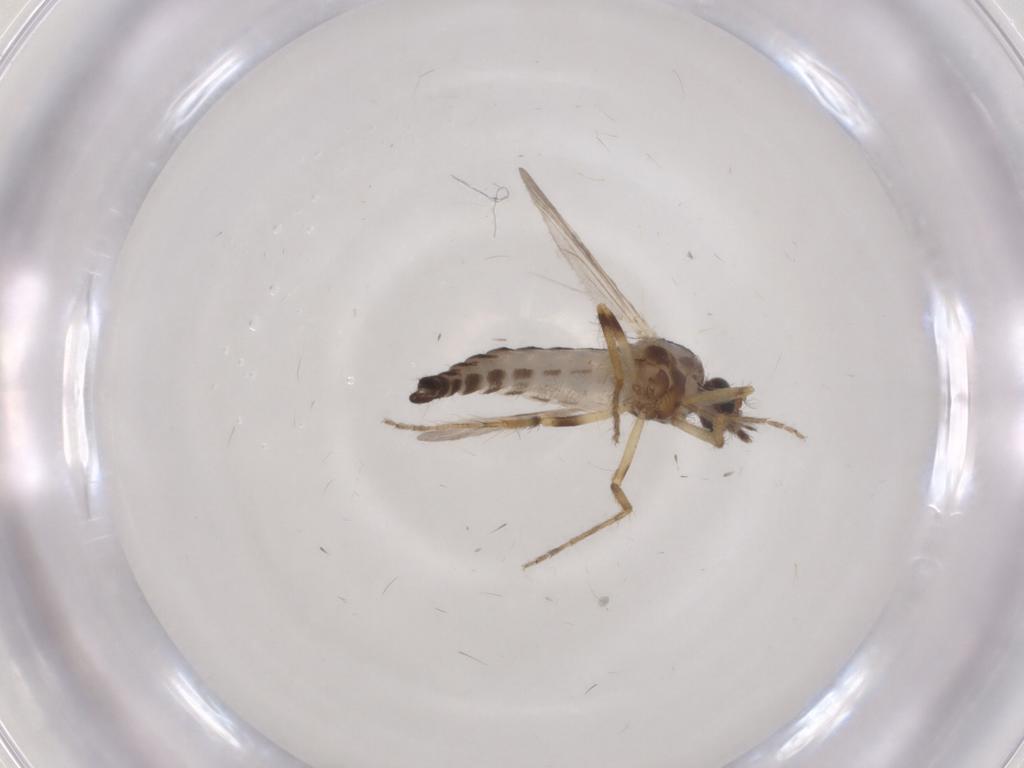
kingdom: Animalia
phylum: Arthropoda
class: Insecta
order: Diptera
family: Ceratopogonidae
